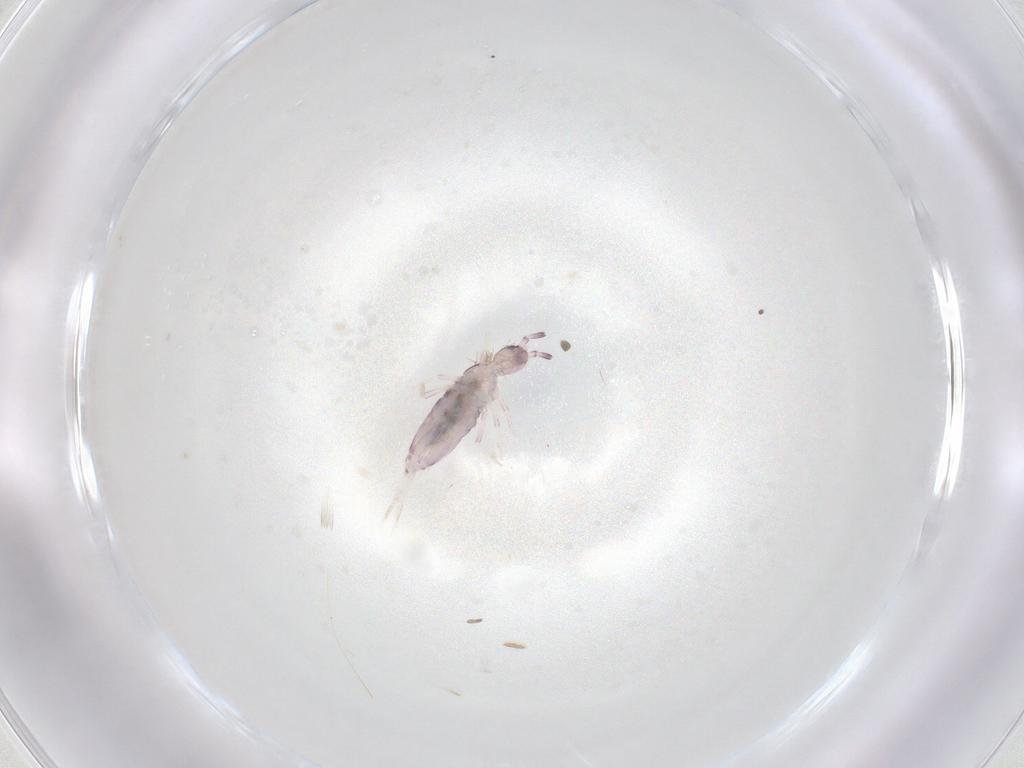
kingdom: Animalia
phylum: Arthropoda
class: Collembola
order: Poduromorpha
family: Hypogastruridae
